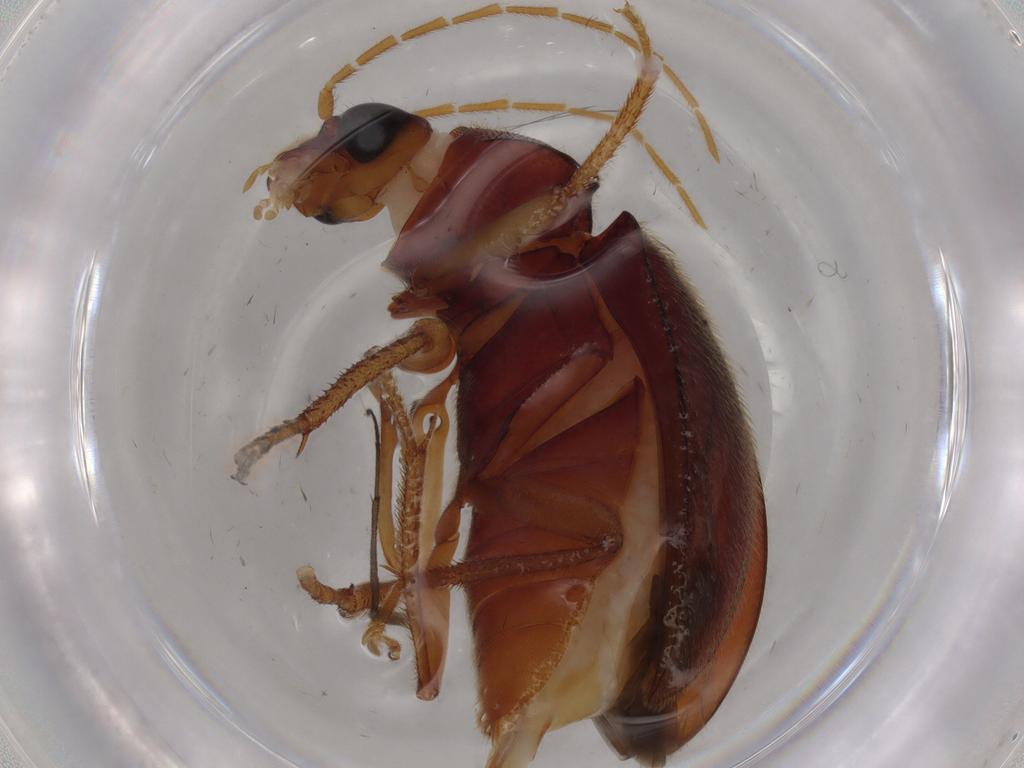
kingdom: Animalia
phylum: Arthropoda
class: Insecta
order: Coleoptera
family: Ptilodactylidae
